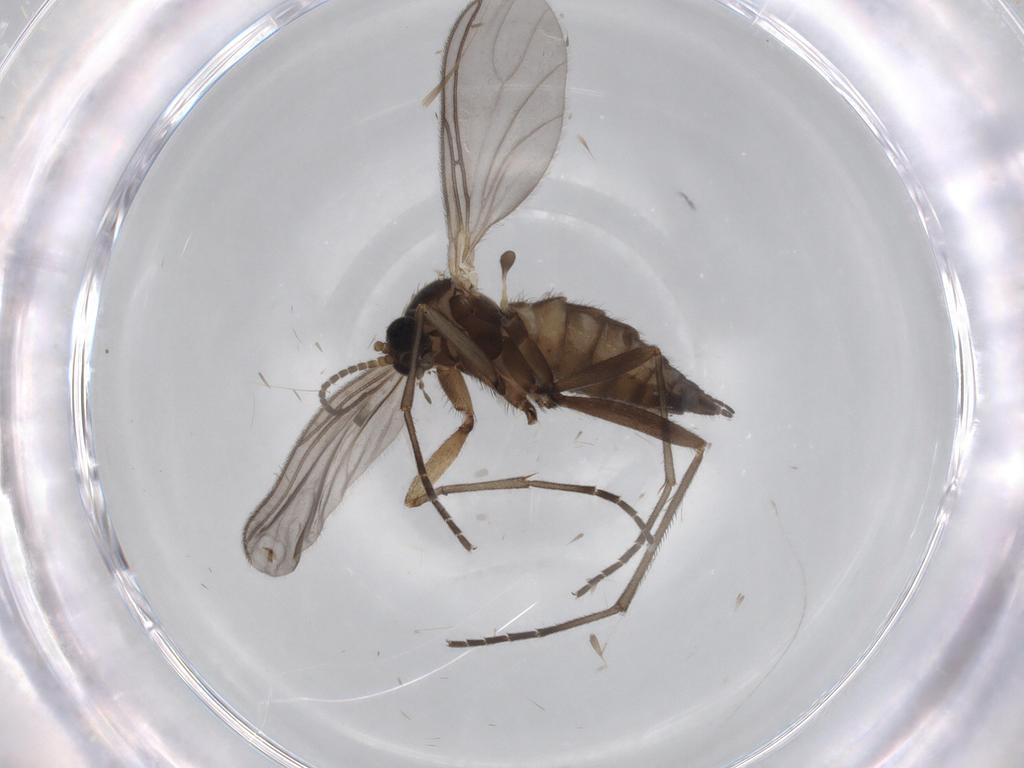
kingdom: Animalia
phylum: Arthropoda
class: Insecta
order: Diptera
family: Sciaridae
